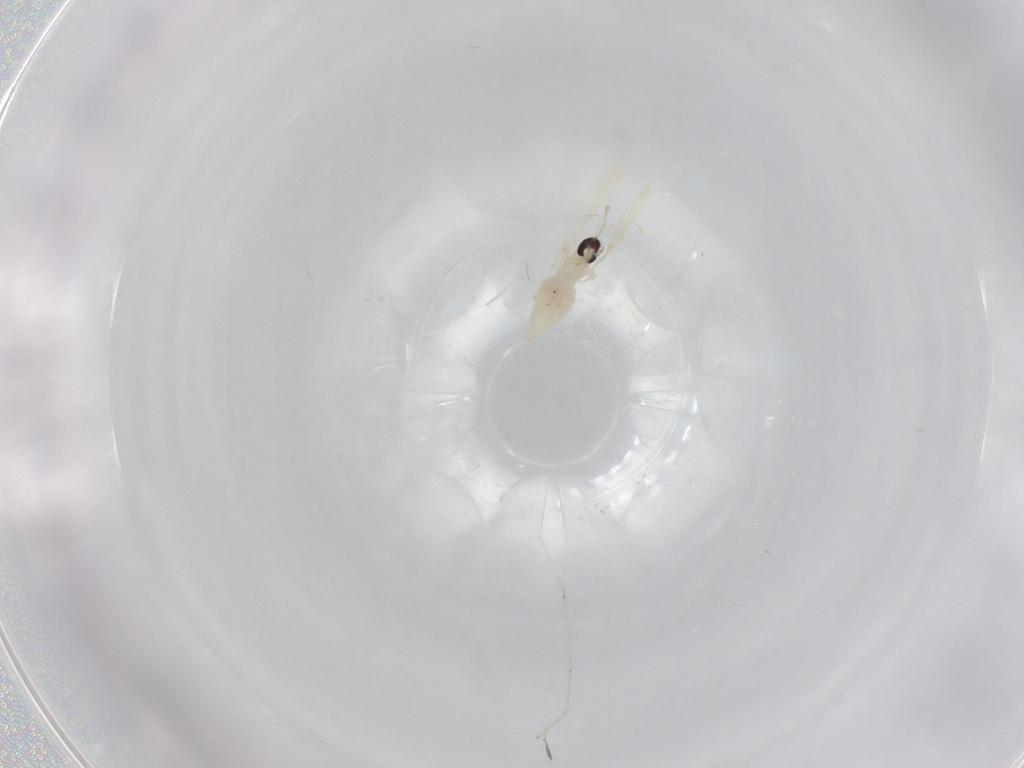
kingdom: Animalia
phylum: Arthropoda
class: Insecta
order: Diptera
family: Cecidomyiidae
